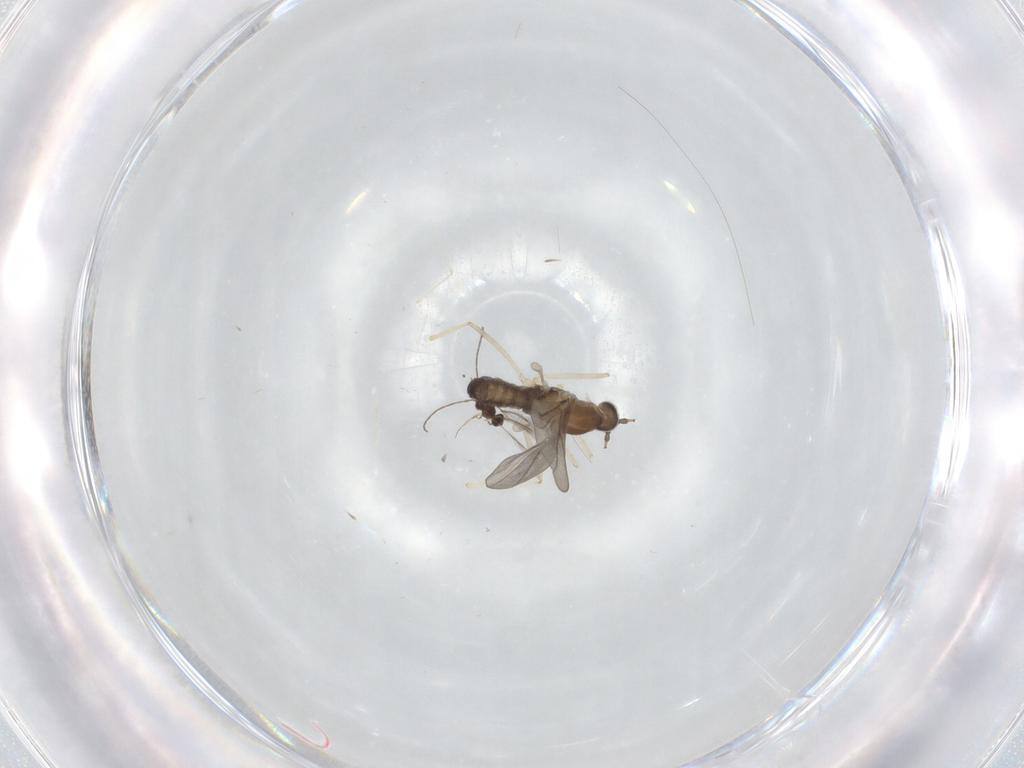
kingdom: Animalia
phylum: Arthropoda
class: Insecta
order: Diptera
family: Cecidomyiidae
